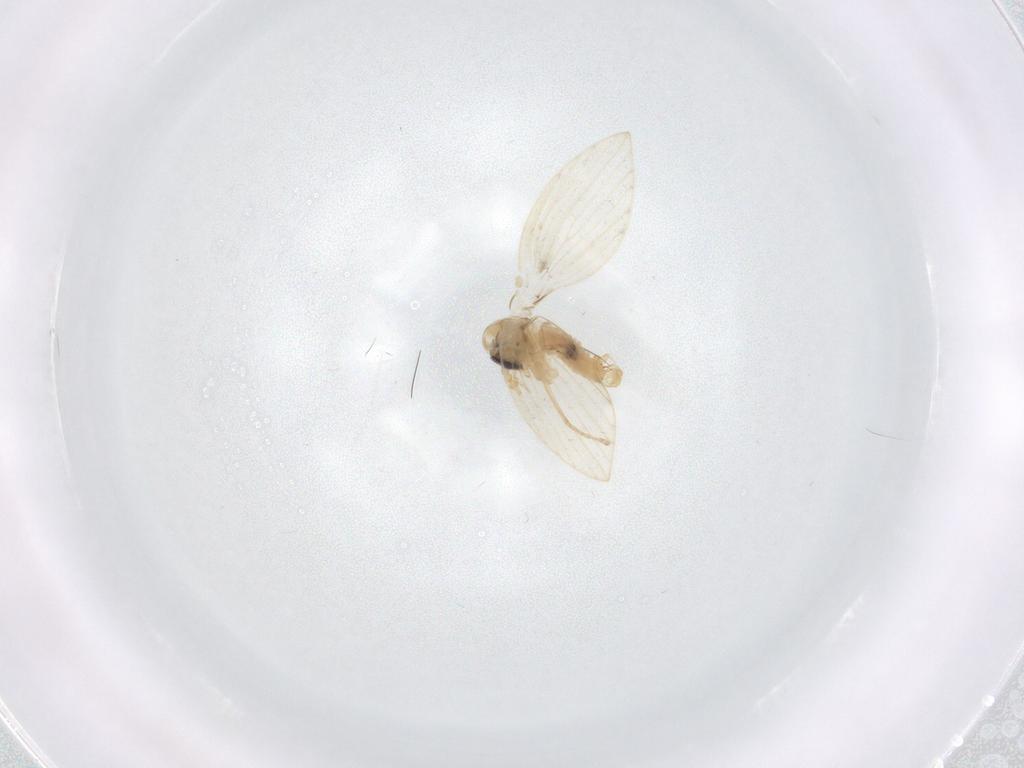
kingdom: Animalia
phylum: Arthropoda
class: Insecta
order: Diptera
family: Psychodidae
